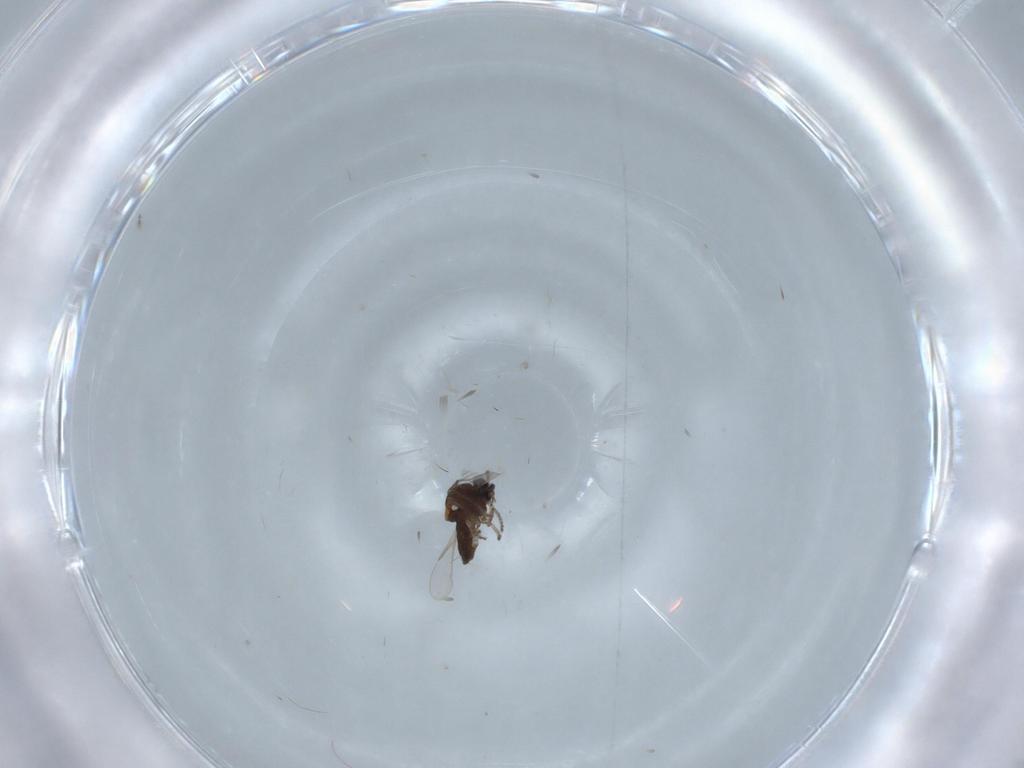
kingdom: Animalia
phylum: Arthropoda
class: Insecta
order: Diptera
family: Ceratopogonidae
